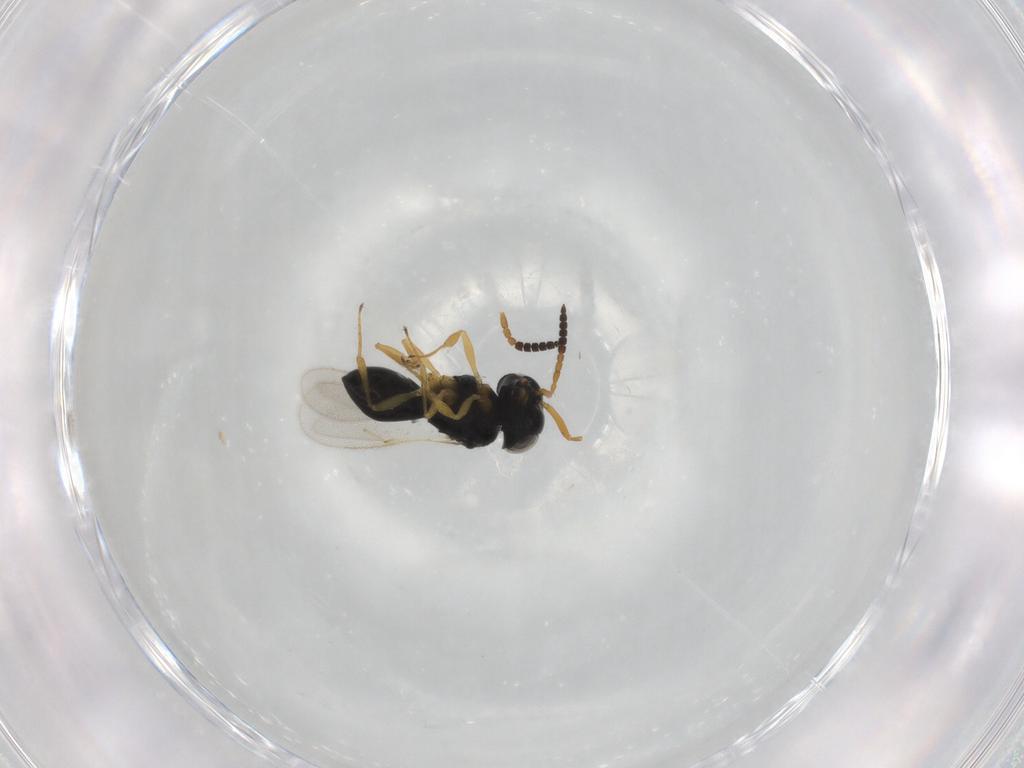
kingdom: Animalia
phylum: Arthropoda
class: Insecta
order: Hymenoptera
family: Scelionidae
